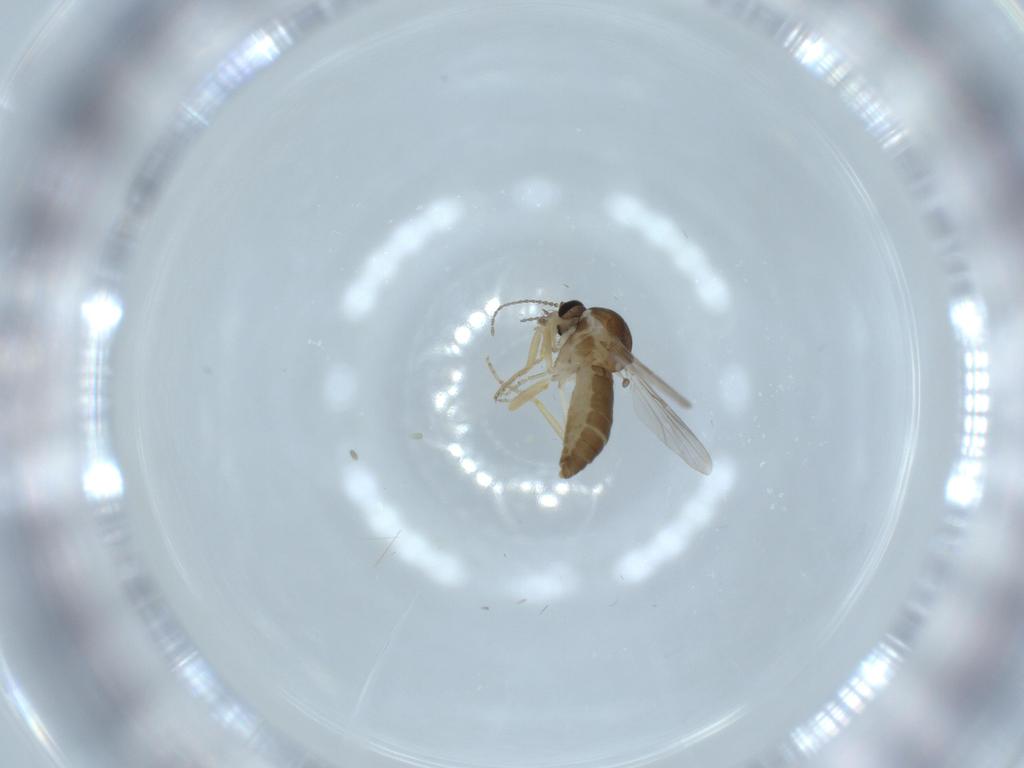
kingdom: Animalia
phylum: Arthropoda
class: Insecta
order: Diptera
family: Ceratopogonidae
